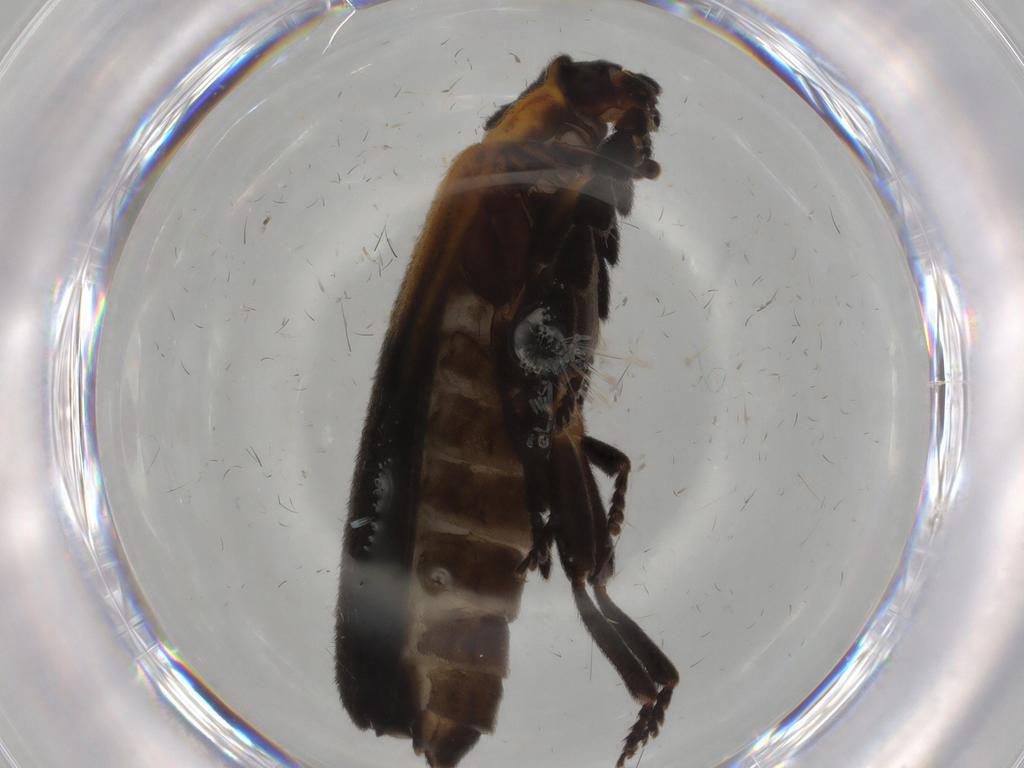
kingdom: Animalia
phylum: Arthropoda
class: Insecta
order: Coleoptera
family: Lycidae
